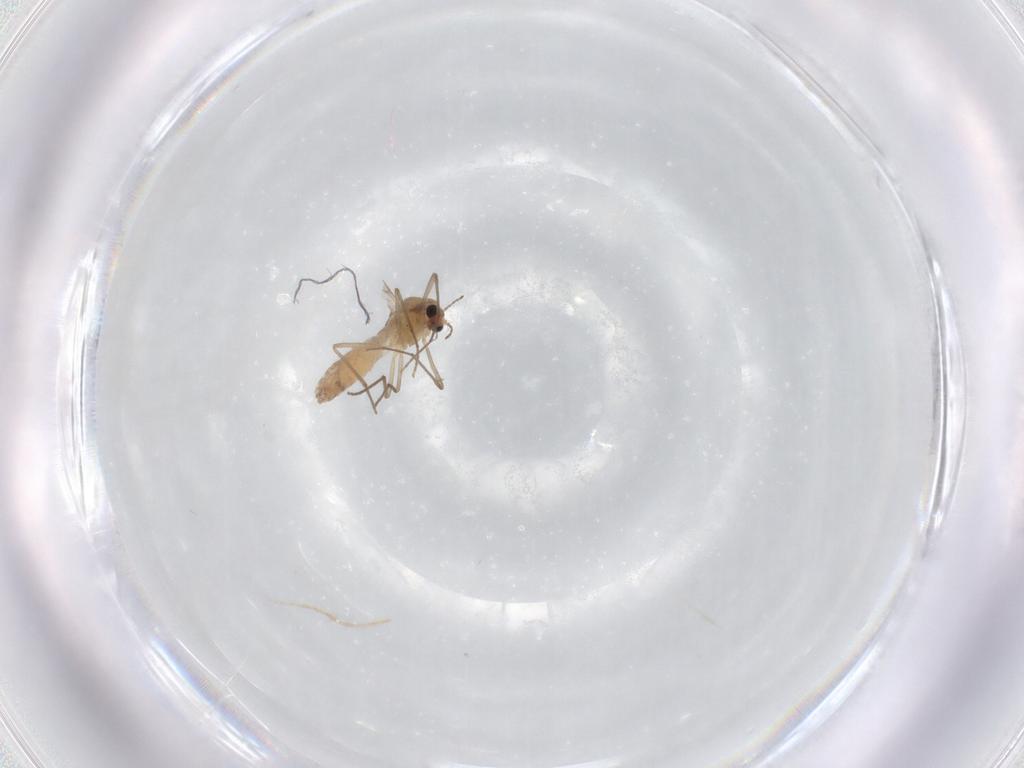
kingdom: Animalia
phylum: Arthropoda
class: Insecta
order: Diptera
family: Chironomidae
